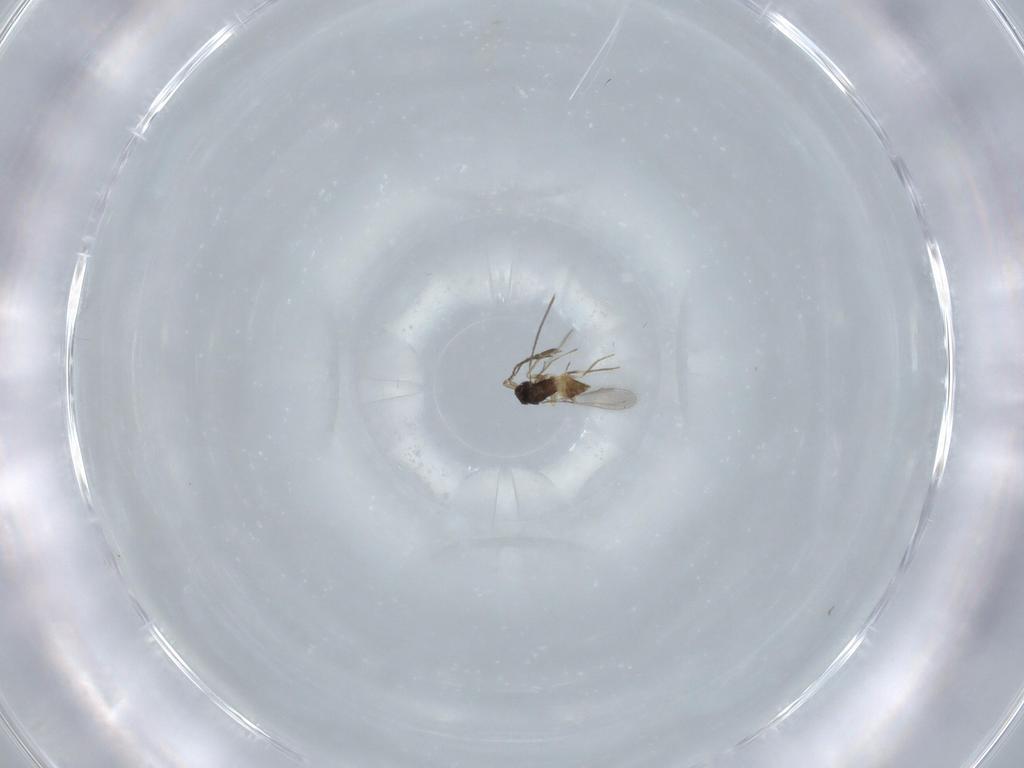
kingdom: Animalia
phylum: Arthropoda
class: Insecta
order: Hymenoptera
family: Mymaridae
